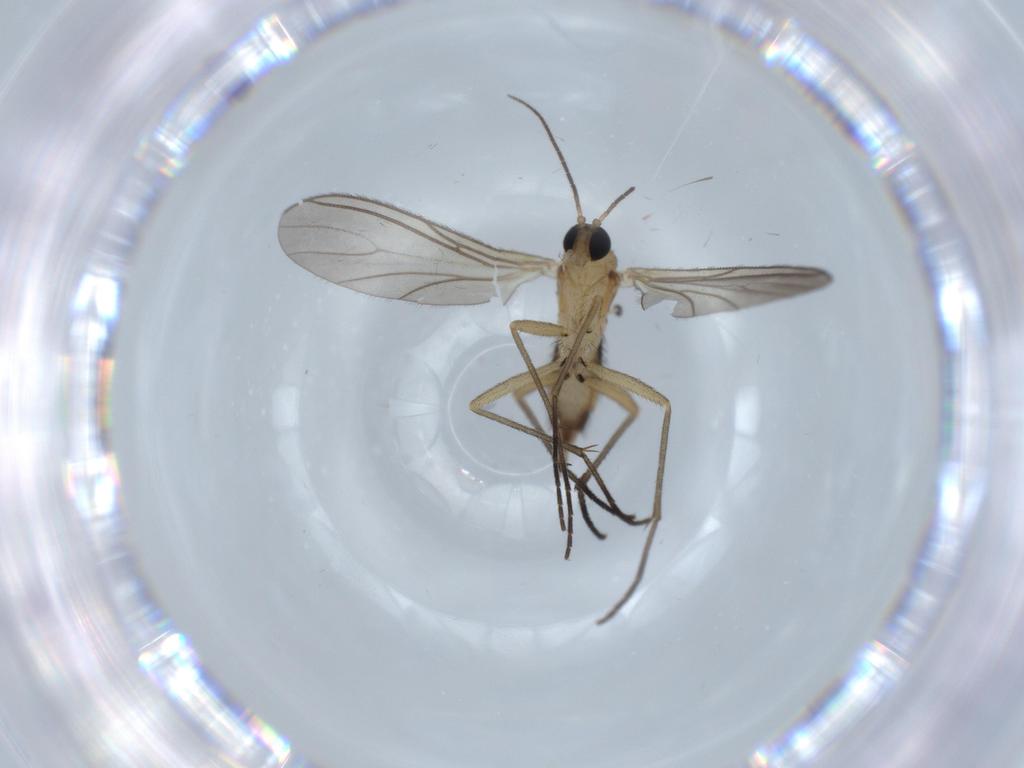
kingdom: Animalia
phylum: Arthropoda
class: Insecta
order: Diptera
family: Sciaridae
